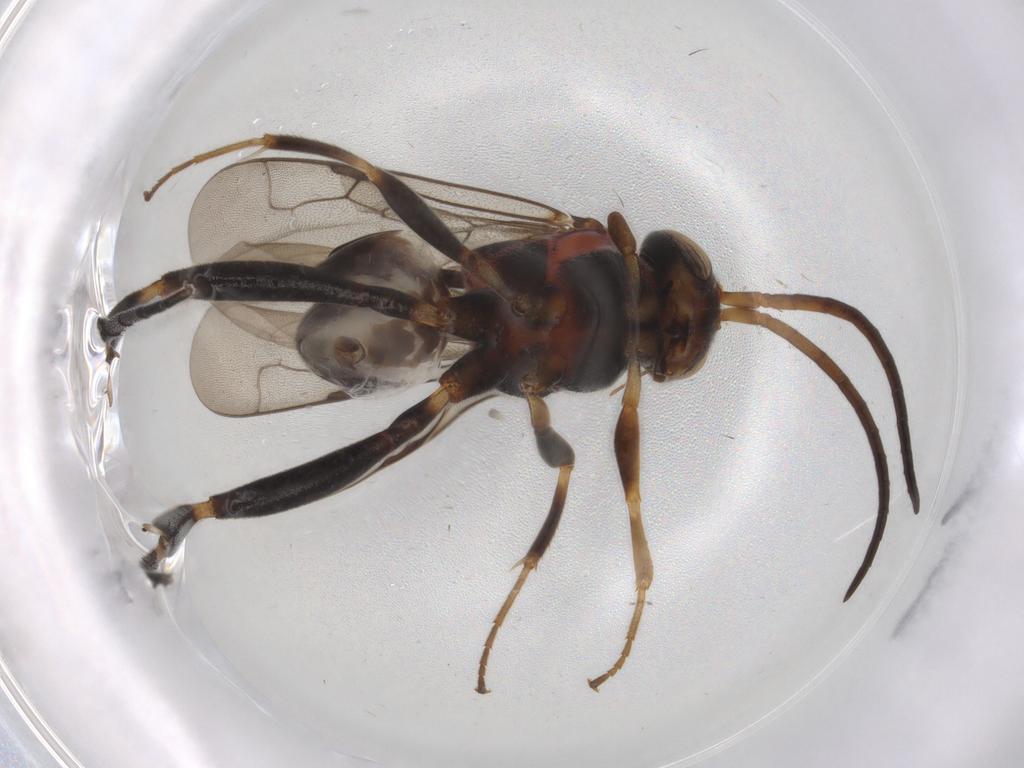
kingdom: Animalia
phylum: Arthropoda
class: Insecta
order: Hymenoptera
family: Evaniidae
